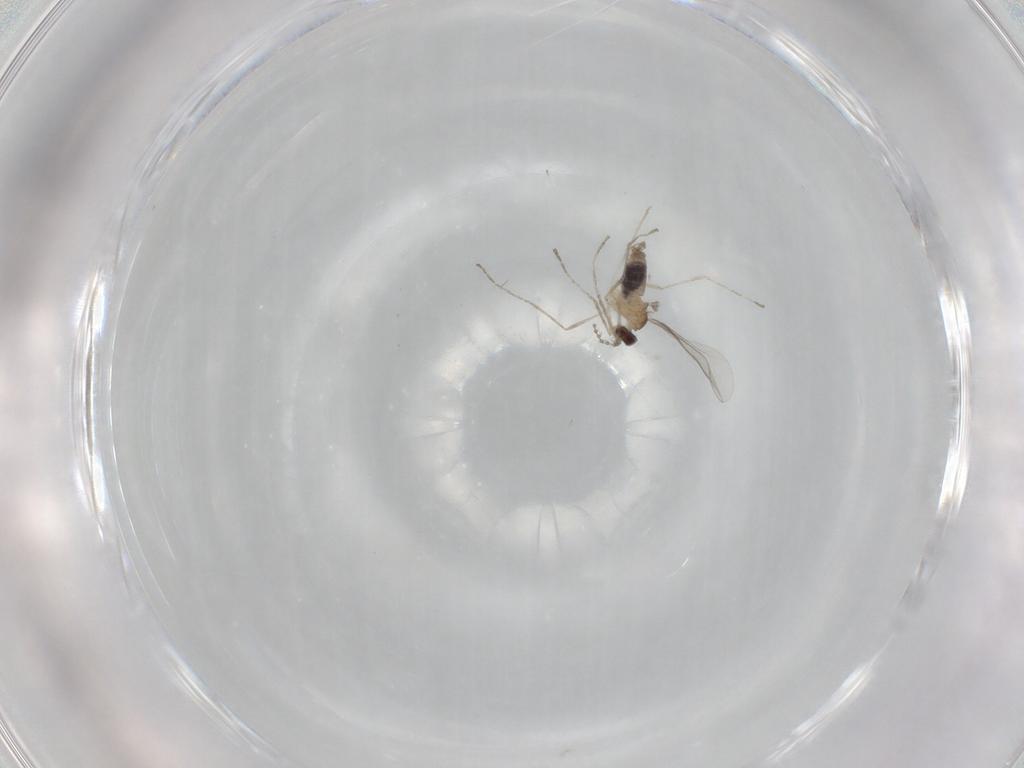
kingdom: Animalia
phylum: Arthropoda
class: Insecta
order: Diptera
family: Cecidomyiidae
